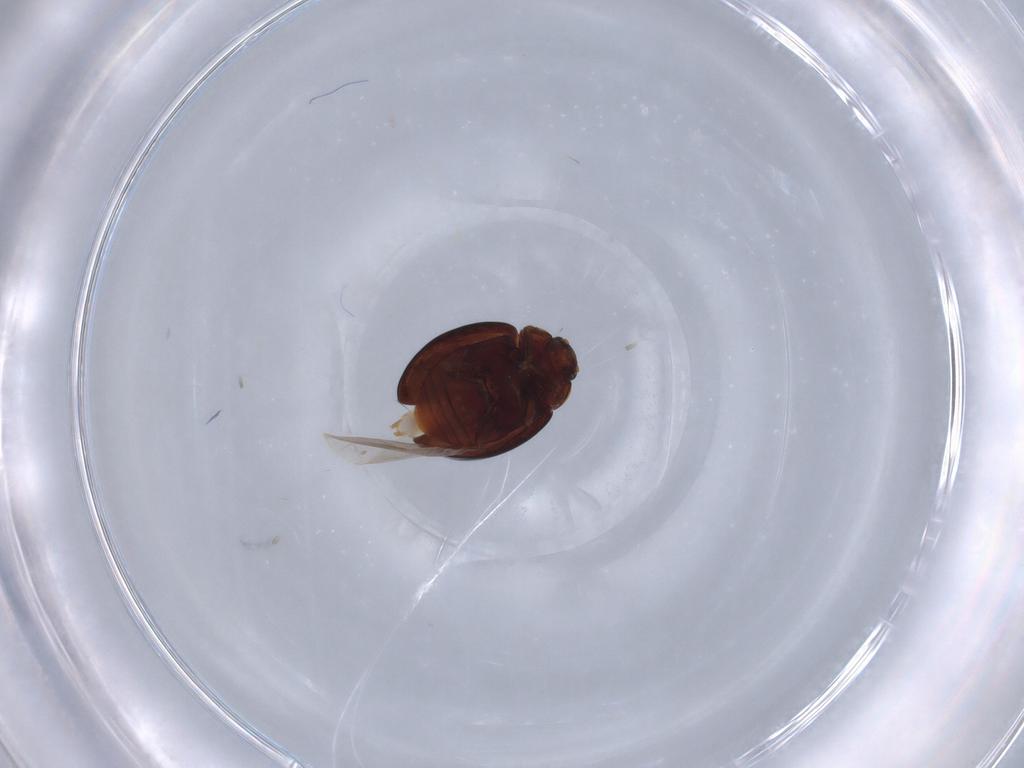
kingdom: Animalia
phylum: Arthropoda
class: Insecta
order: Coleoptera
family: Coccinellidae
